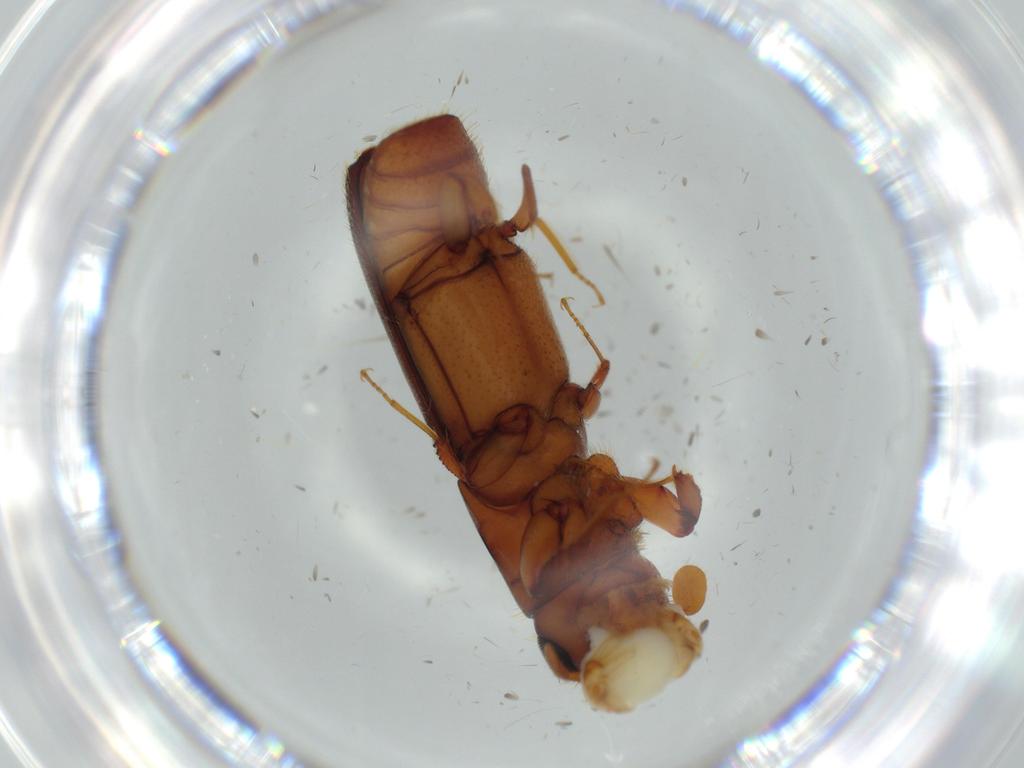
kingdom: Animalia
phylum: Arthropoda
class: Insecta
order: Coleoptera
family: Curculionidae
